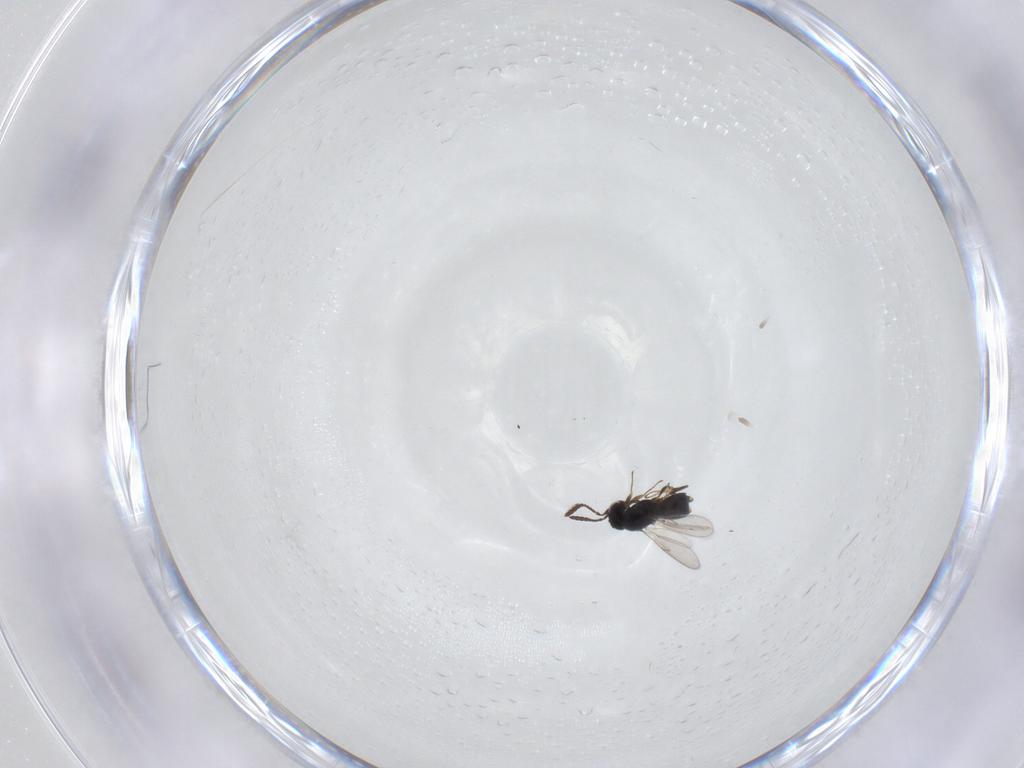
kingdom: Animalia
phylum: Arthropoda
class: Insecta
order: Hymenoptera
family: Scelionidae
